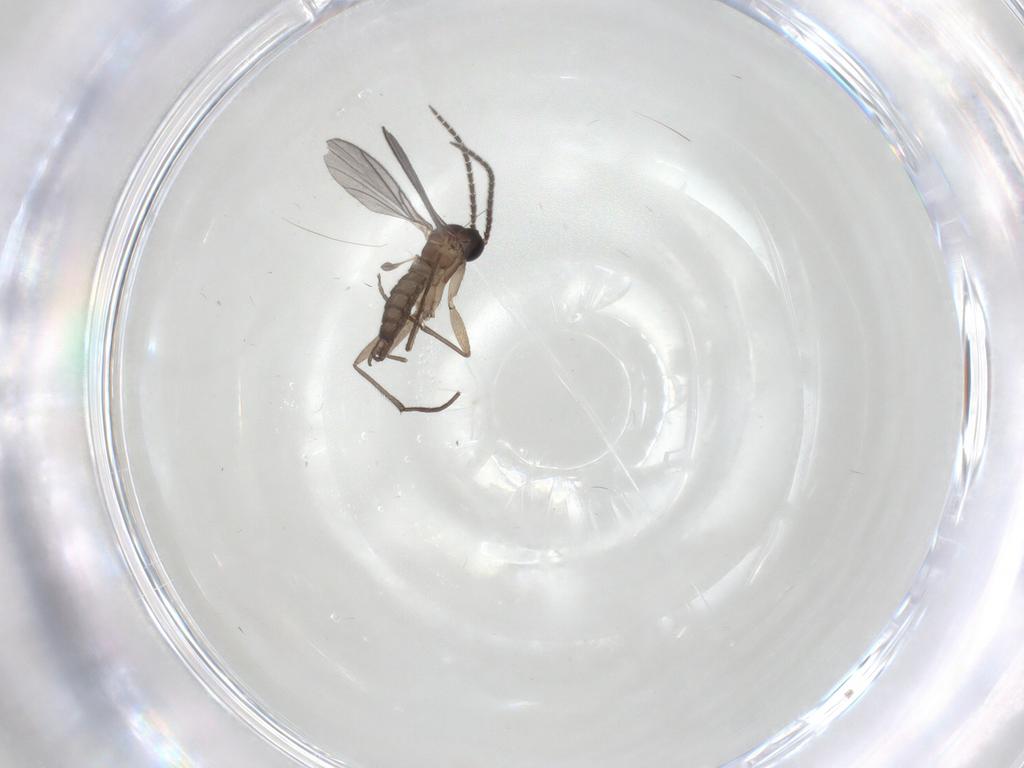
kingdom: Animalia
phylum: Arthropoda
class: Insecta
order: Diptera
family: Sciaridae
